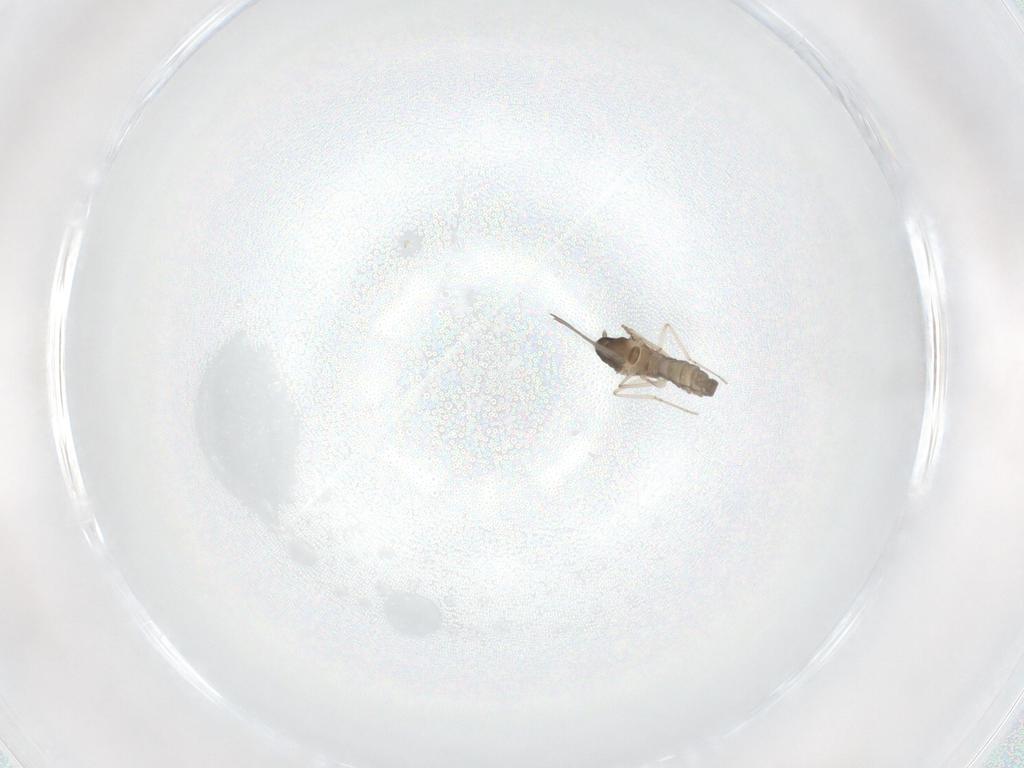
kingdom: Animalia
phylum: Arthropoda
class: Insecta
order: Diptera
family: Cecidomyiidae
